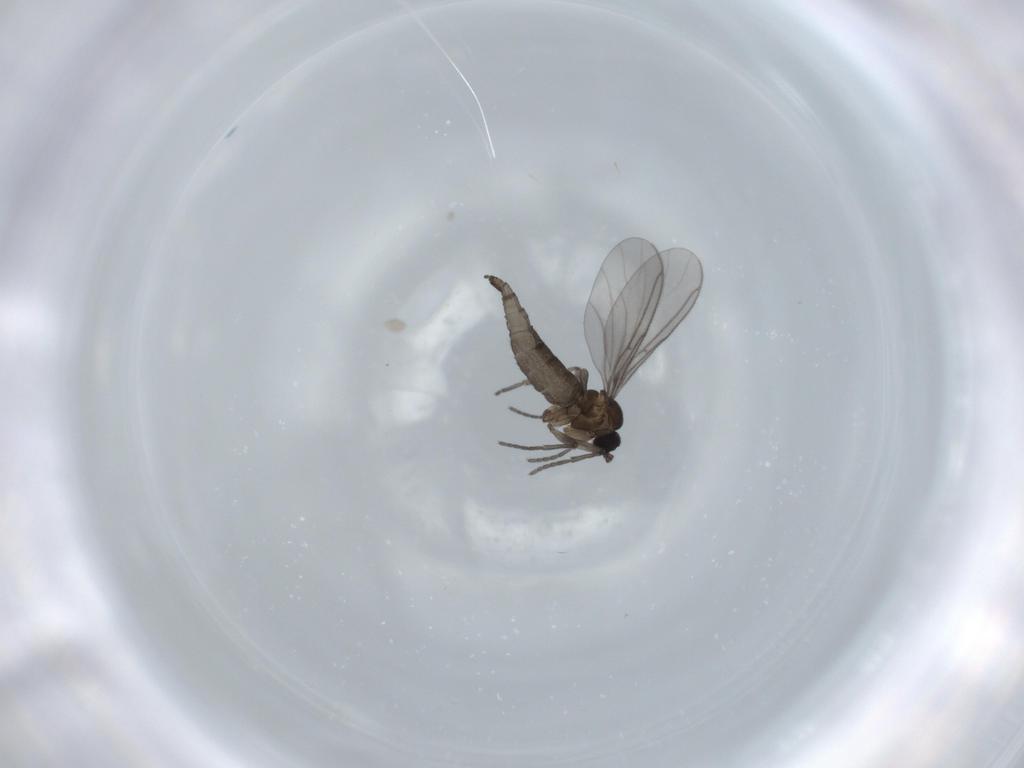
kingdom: Animalia
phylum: Arthropoda
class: Insecta
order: Diptera
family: Cecidomyiidae
